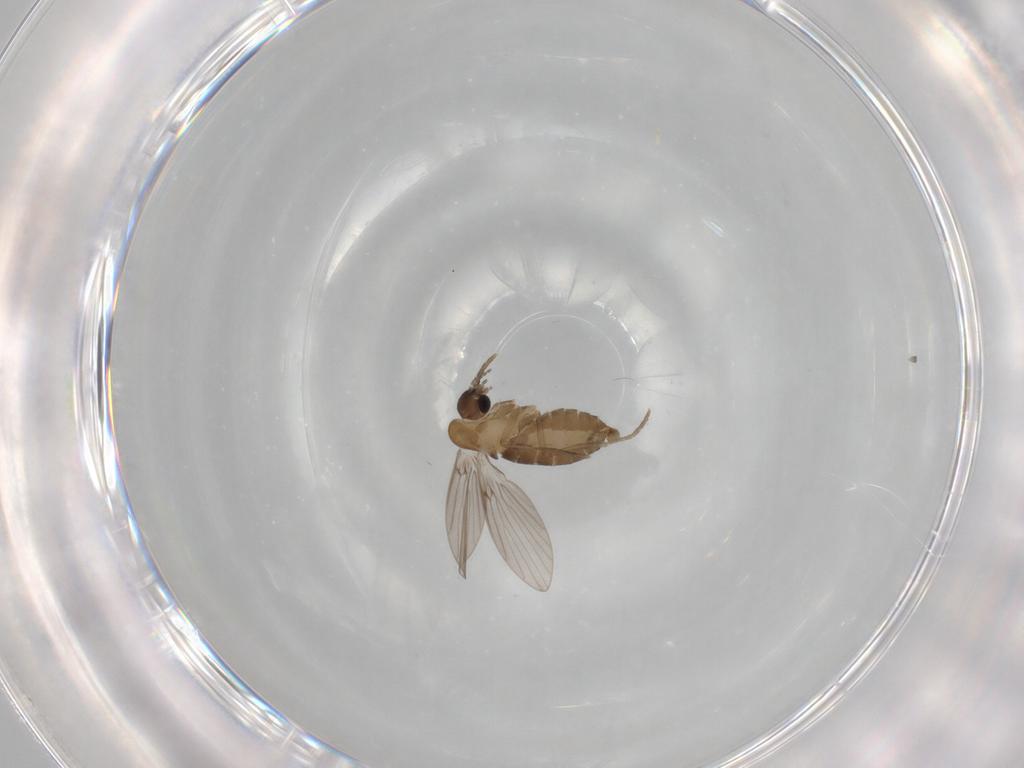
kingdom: Animalia
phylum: Arthropoda
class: Insecta
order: Diptera
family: Psychodidae
